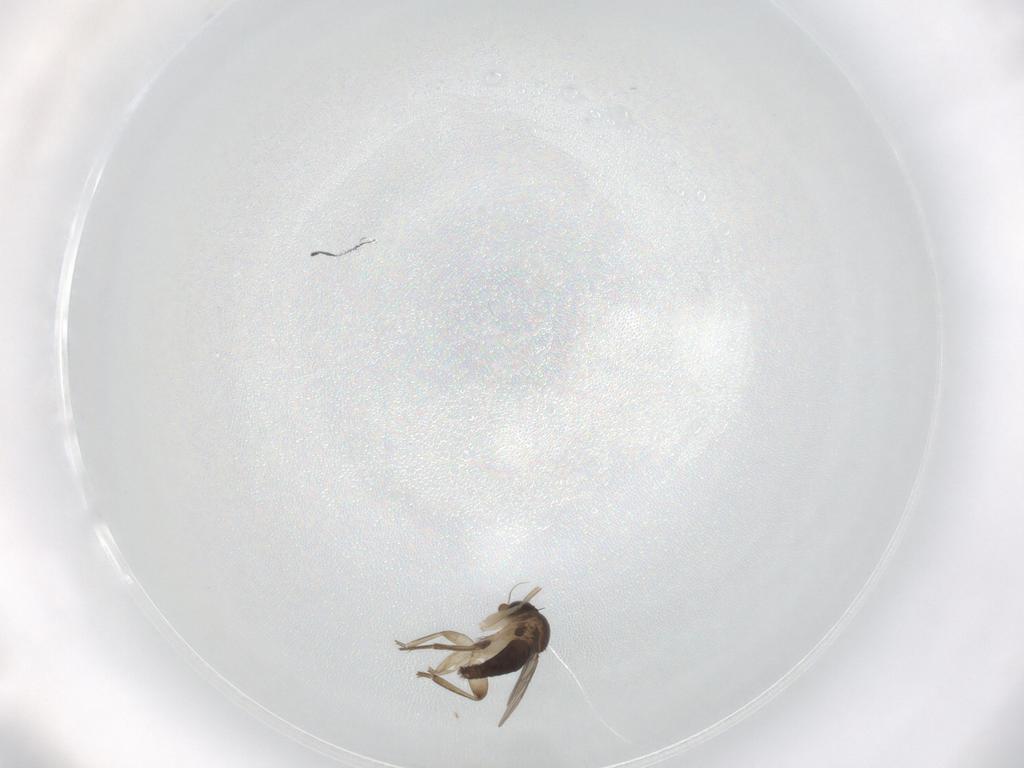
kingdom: Animalia
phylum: Arthropoda
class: Insecta
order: Diptera
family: Phoridae
